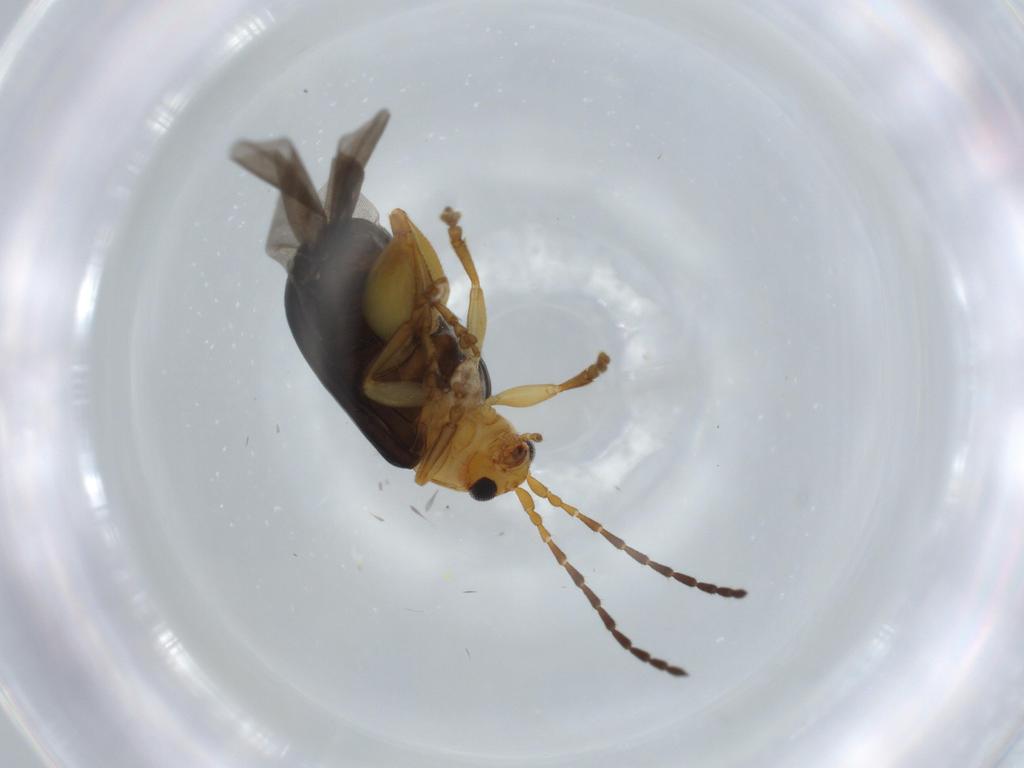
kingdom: Animalia
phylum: Arthropoda
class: Insecta
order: Coleoptera
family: Chrysomelidae
